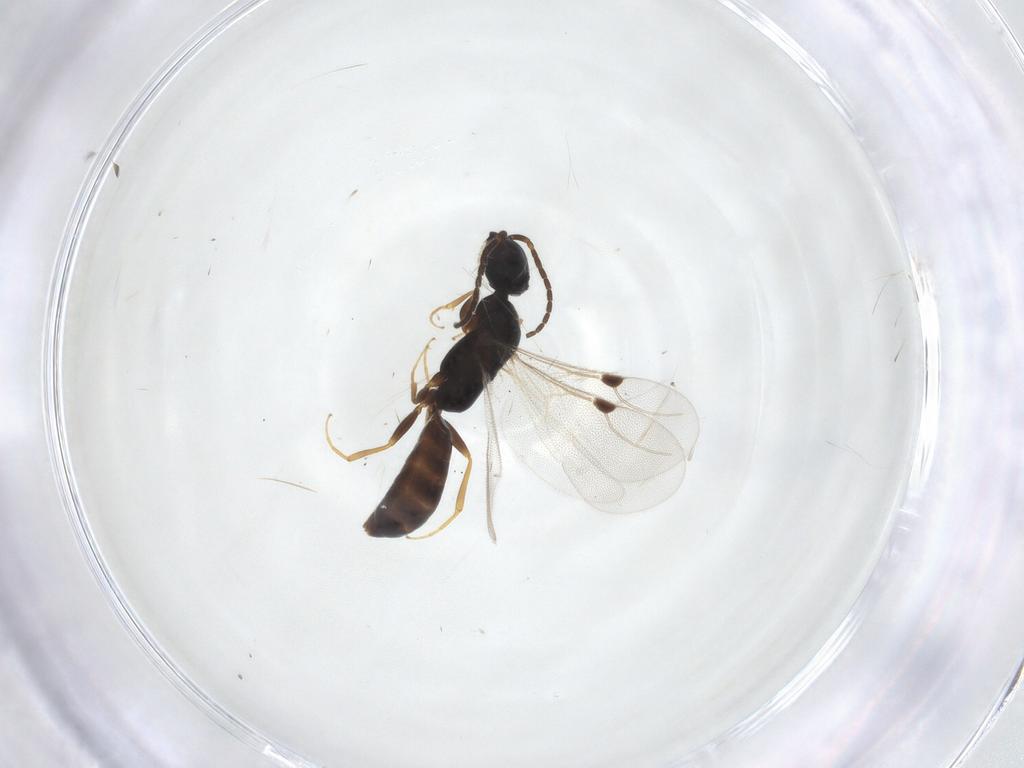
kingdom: Animalia
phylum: Arthropoda
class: Insecta
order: Hymenoptera
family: Bethylidae
